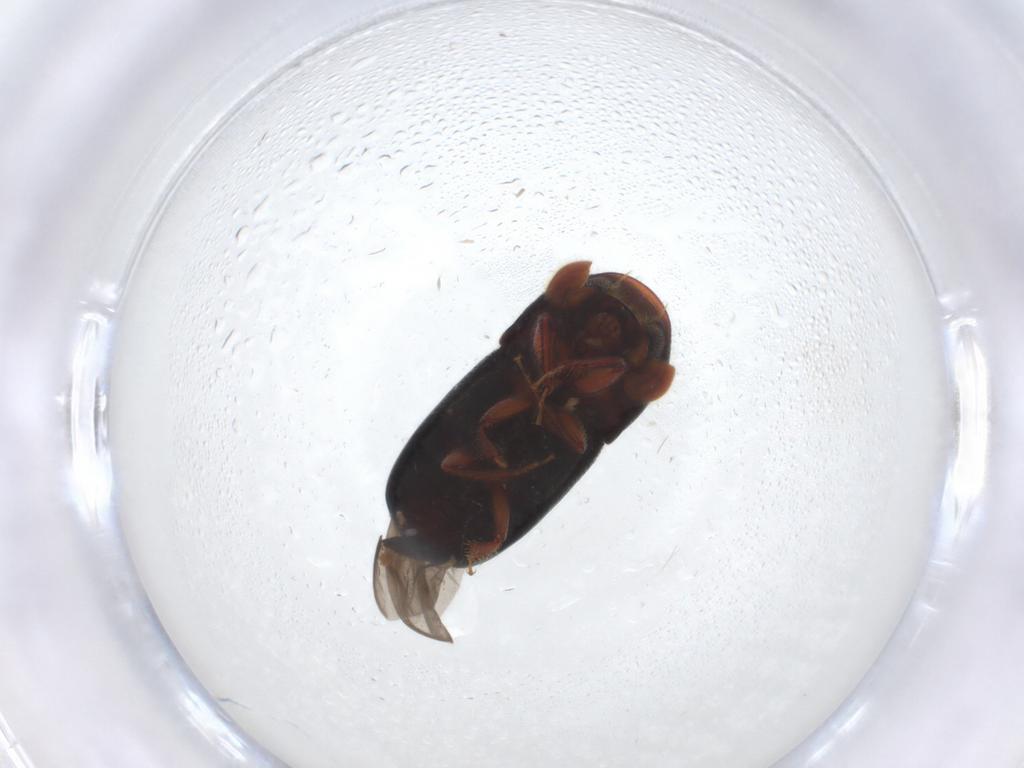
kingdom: Animalia
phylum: Arthropoda
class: Insecta
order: Coleoptera
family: Curculionidae
